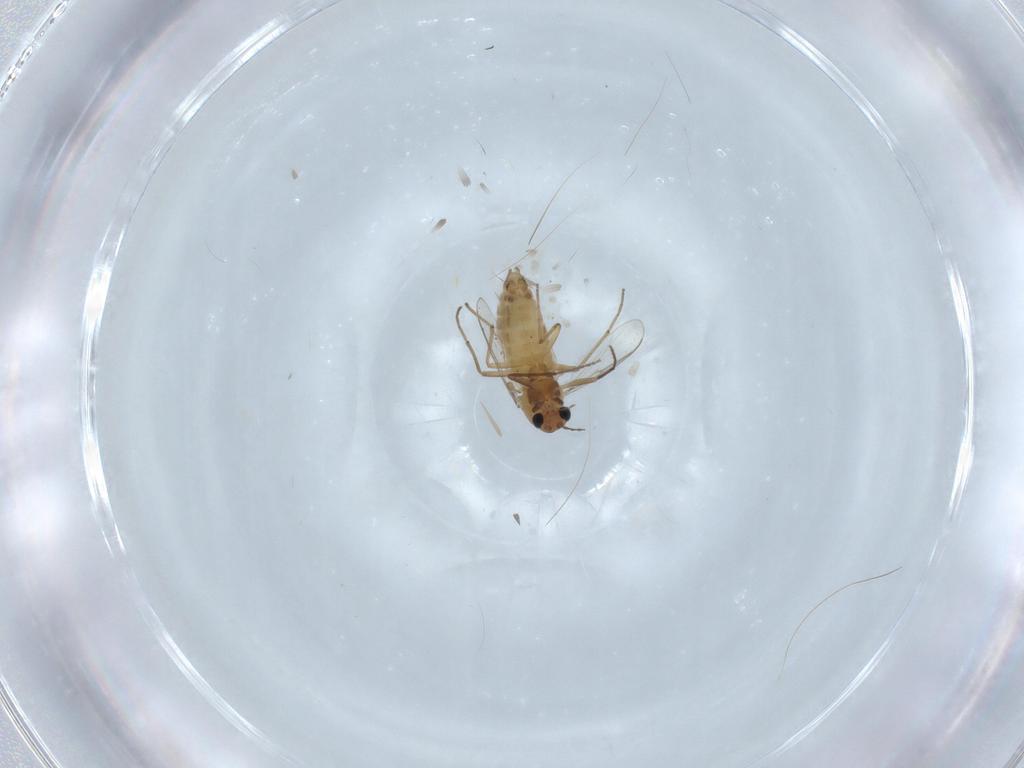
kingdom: Animalia
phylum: Arthropoda
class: Insecta
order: Diptera
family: Chironomidae
